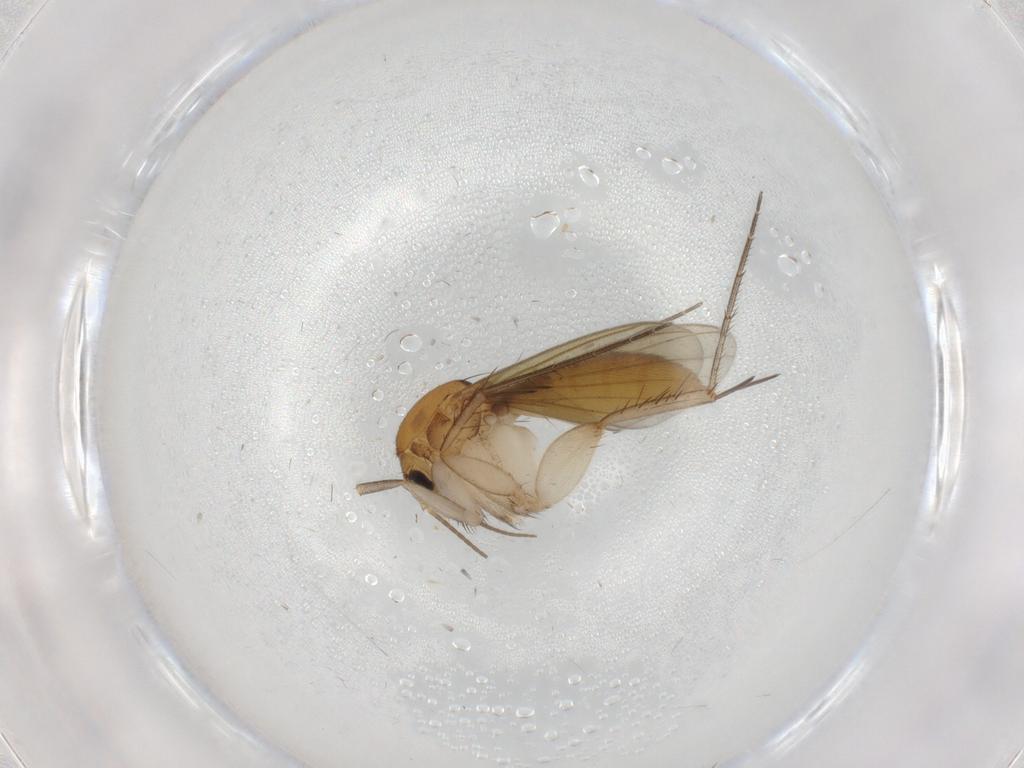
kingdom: Animalia
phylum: Arthropoda
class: Insecta
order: Diptera
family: Mycetophilidae
